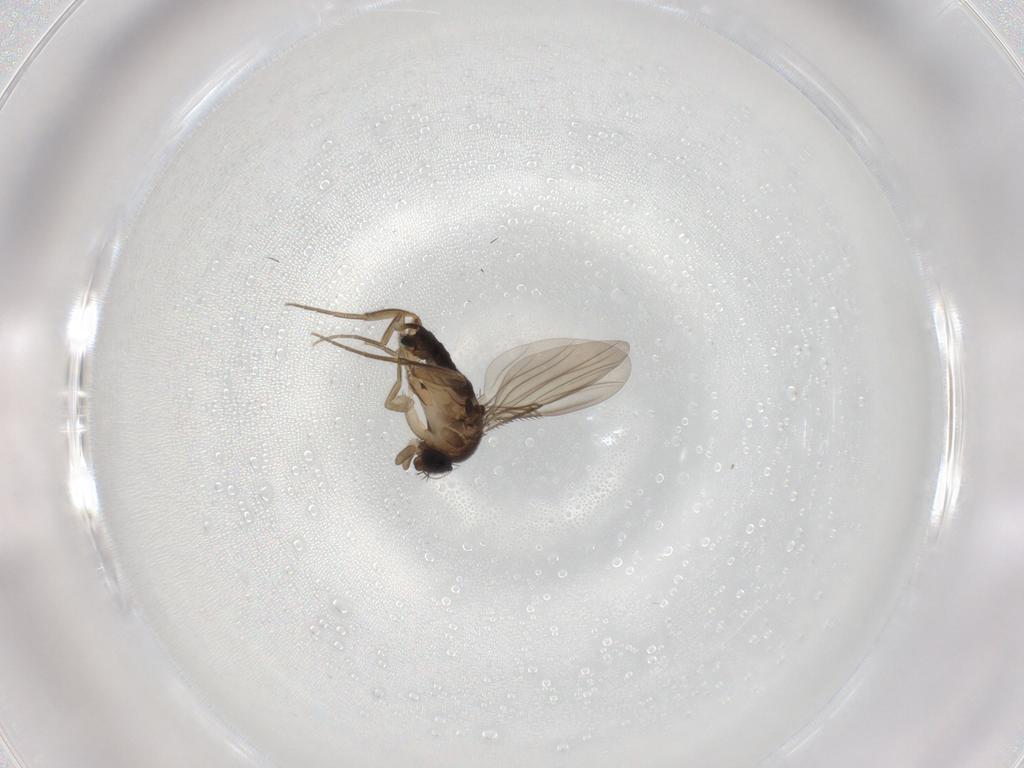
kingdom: Animalia
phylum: Arthropoda
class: Insecta
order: Diptera
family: Phoridae
